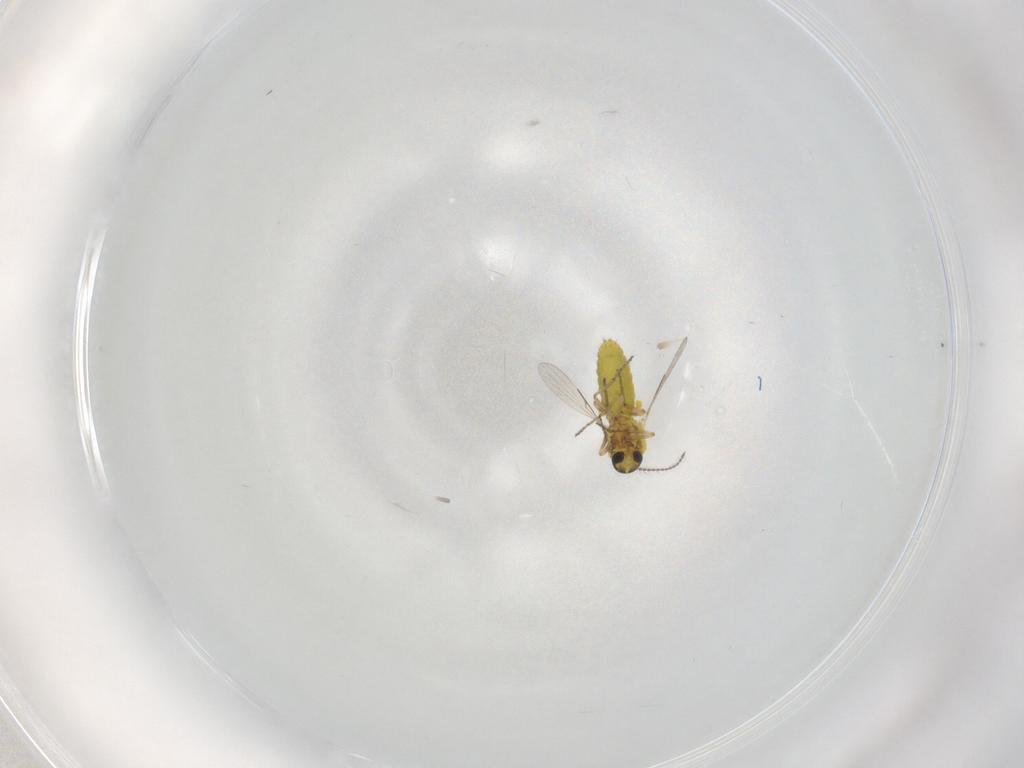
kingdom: Animalia
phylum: Arthropoda
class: Insecta
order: Diptera
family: Ceratopogonidae
